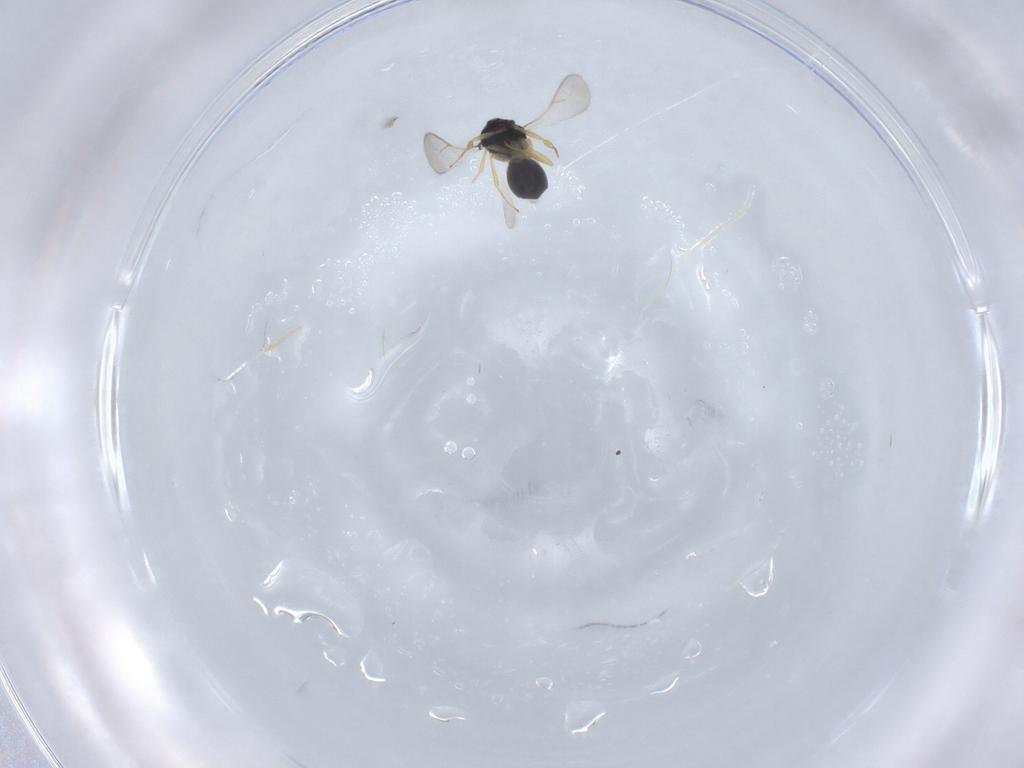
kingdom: Animalia
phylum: Arthropoda
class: Insecta
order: Hymenoptera
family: Scelionidae
